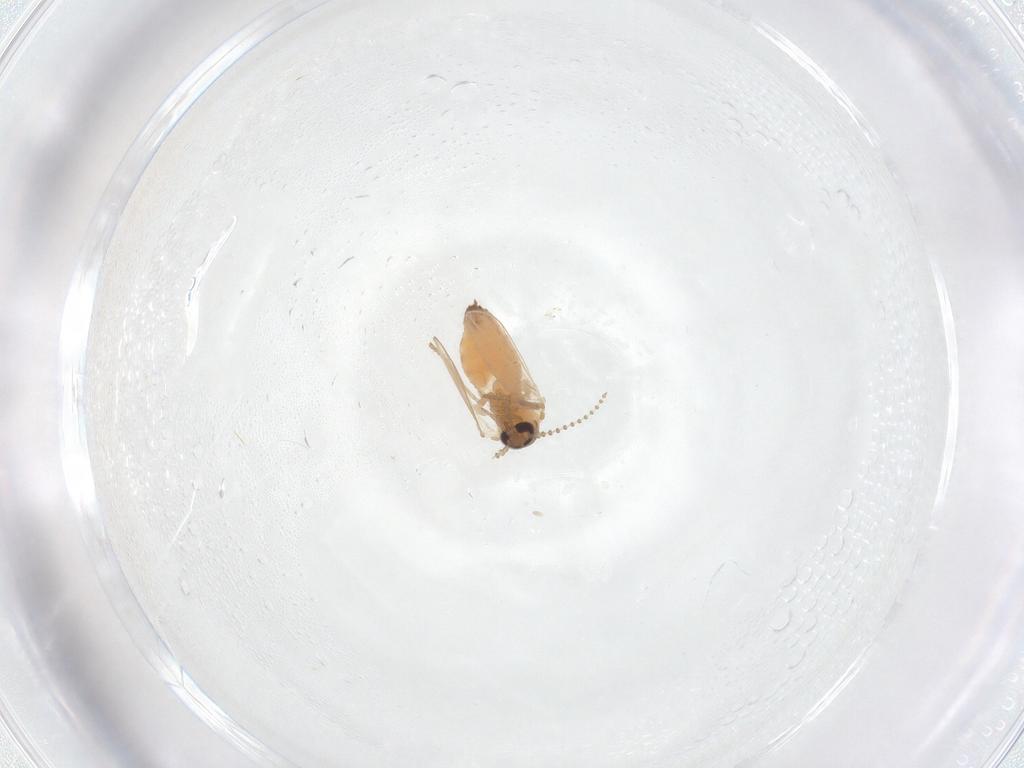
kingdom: Animalia
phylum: Arthropoda
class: Insecta
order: Diptera
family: Psychodidae
